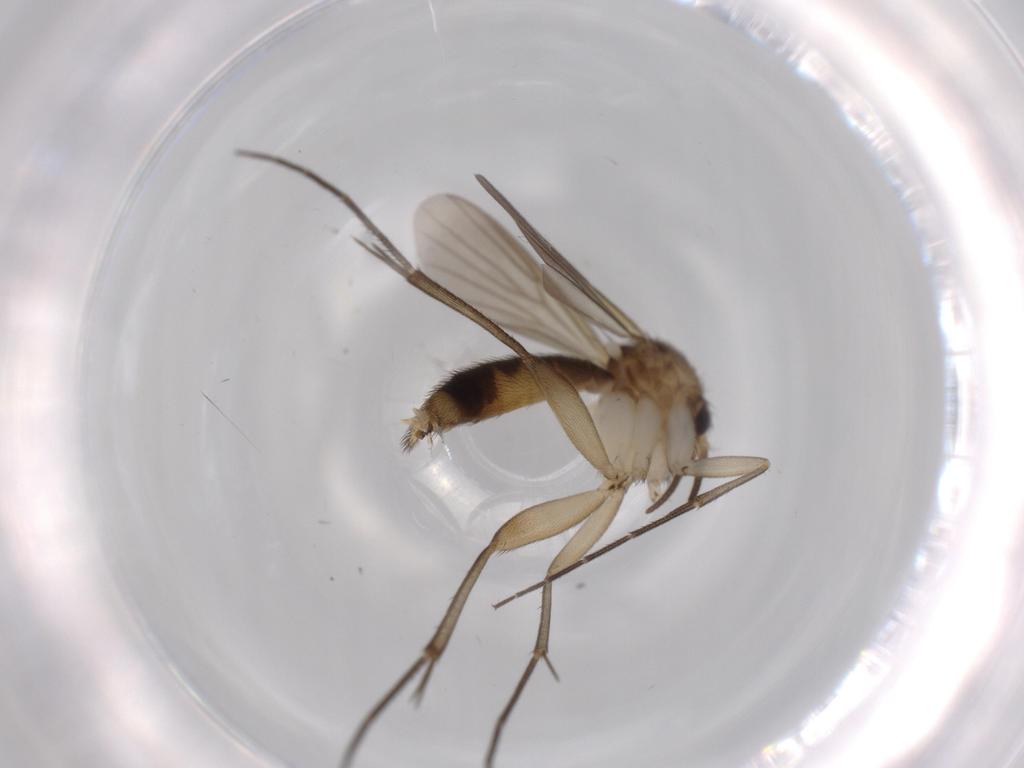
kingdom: Animalia
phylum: Arthropoda
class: Insecta
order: Diptera
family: Mycetophilidae
